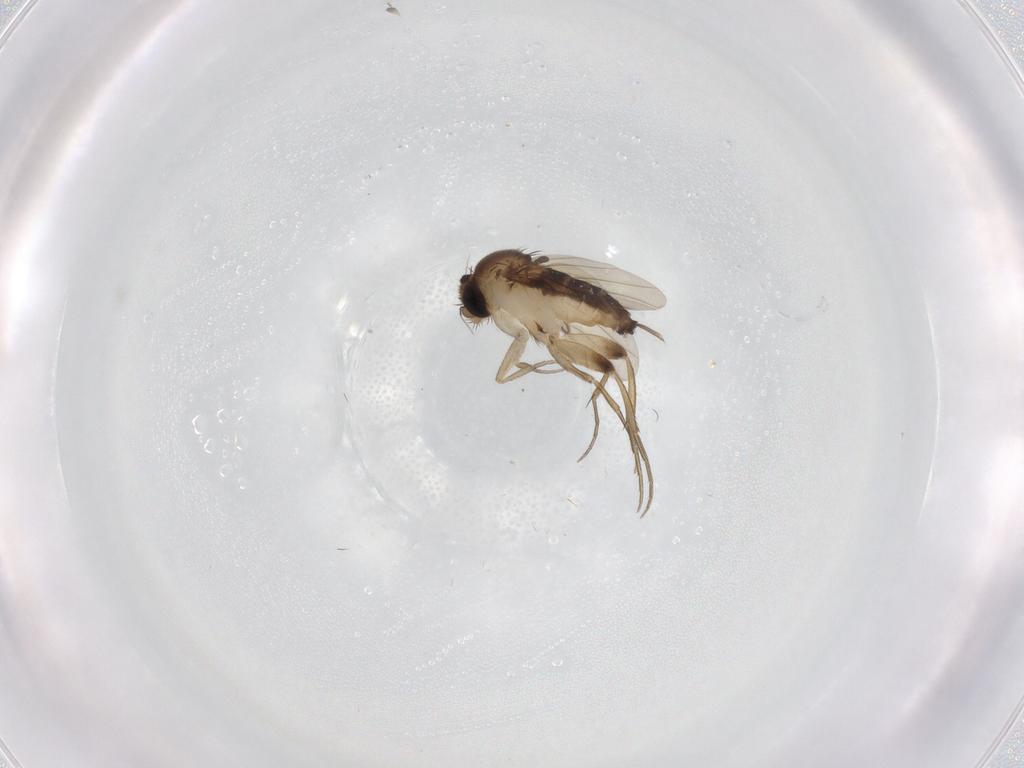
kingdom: Animalia
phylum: Arthropoda
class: Insecta
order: Diptera
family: Phoridae
